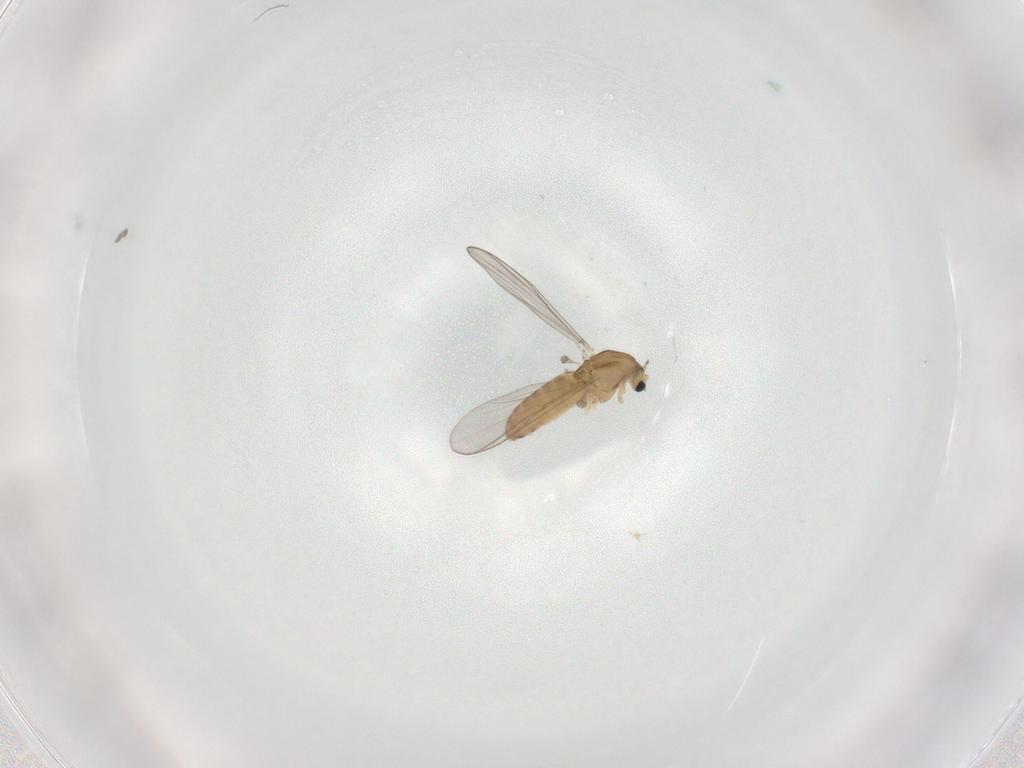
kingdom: Animalia
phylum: Arthropoda
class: Insecta
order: Diptera
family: Chironomidae
